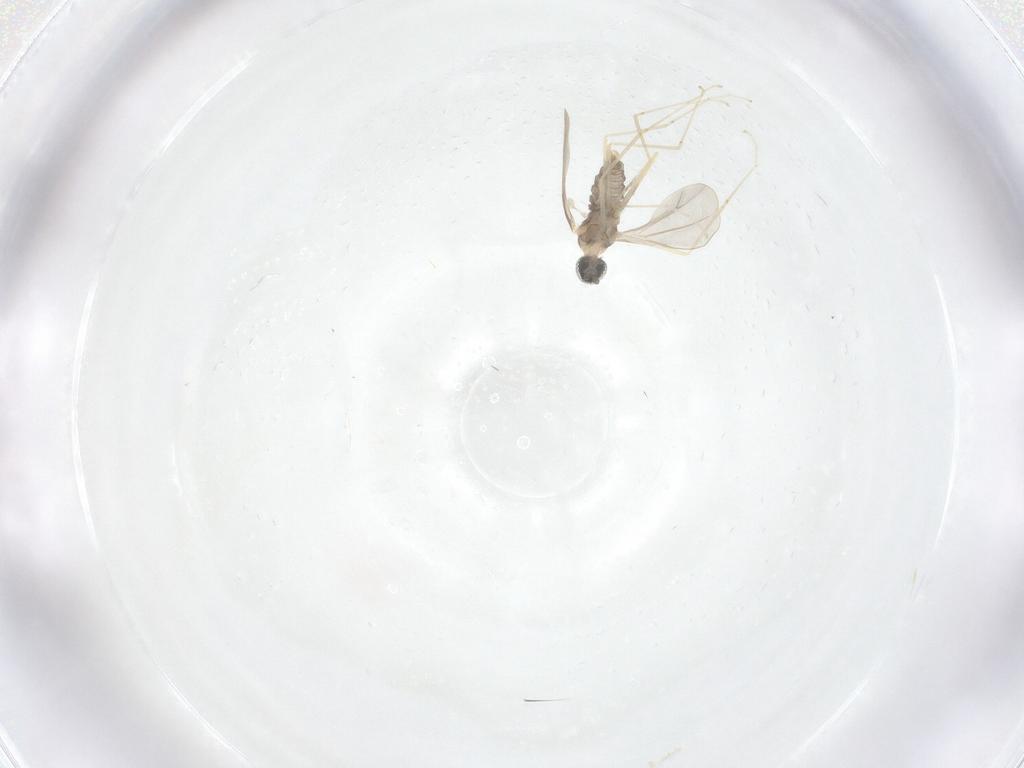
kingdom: Animalia
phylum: Arthropoda
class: Insecta
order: Diptera
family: Cecidomyiidae
